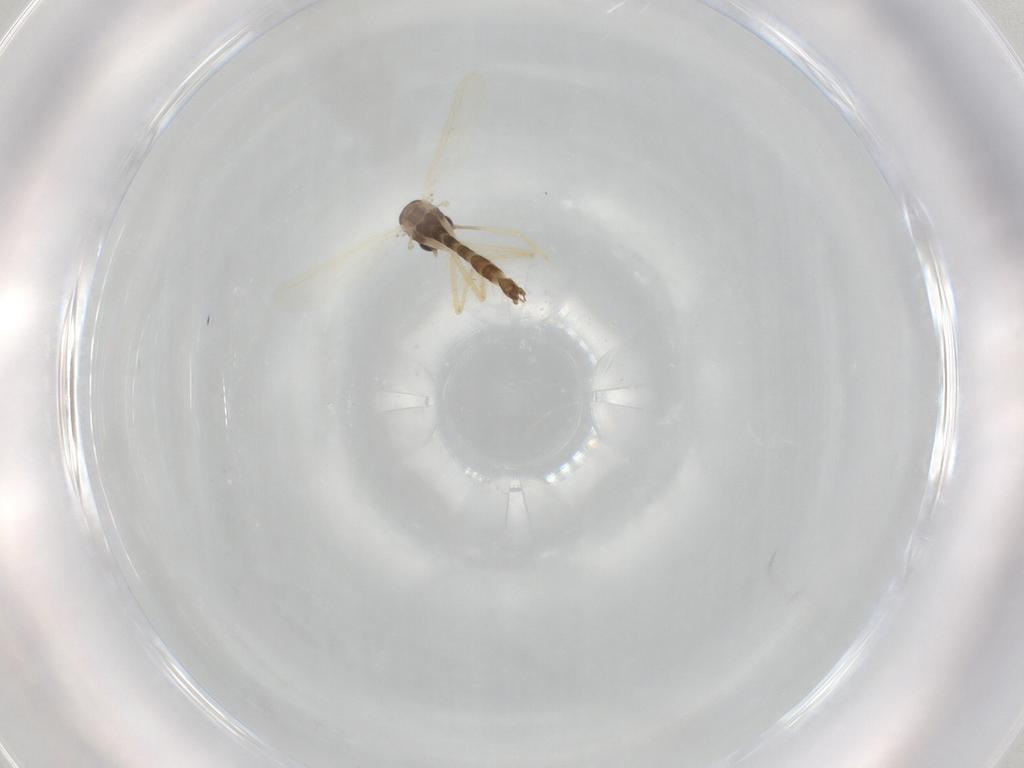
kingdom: Animalia
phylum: Arthropoda
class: Insecta
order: Diptera
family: Chironomidae
